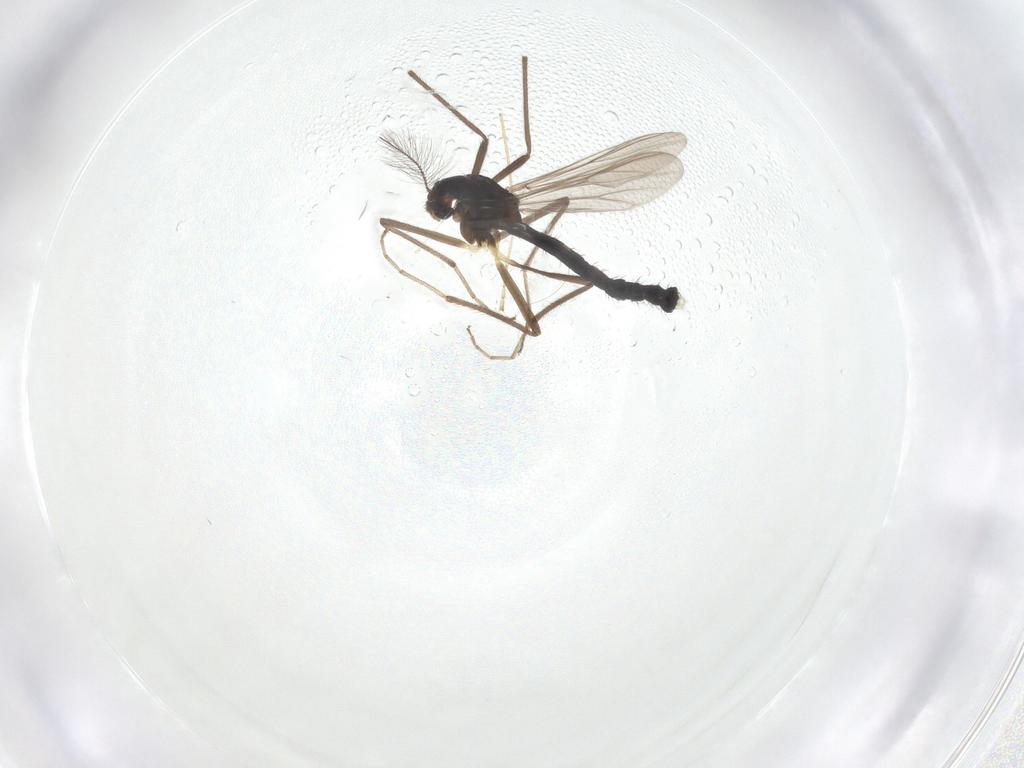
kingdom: Animalia
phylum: Arthropoda
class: Insecta
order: Diptera
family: Chironomidae
